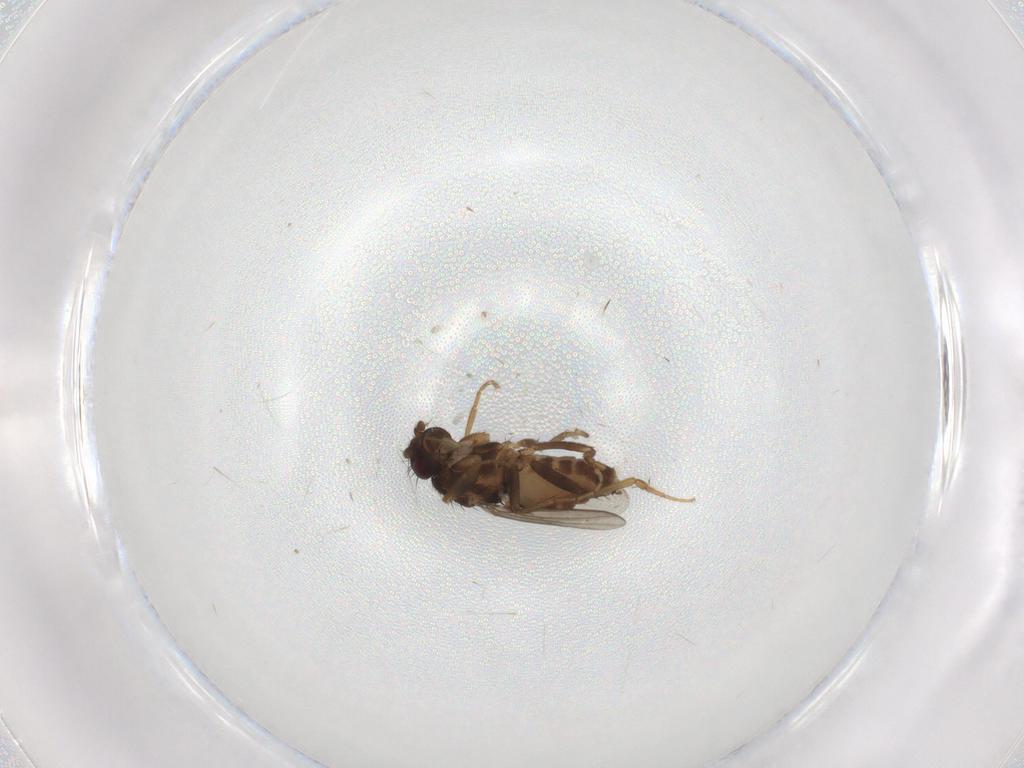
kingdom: Animalia
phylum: Arthropoda
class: Insecta
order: Diptera
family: Sphaeroceridae
